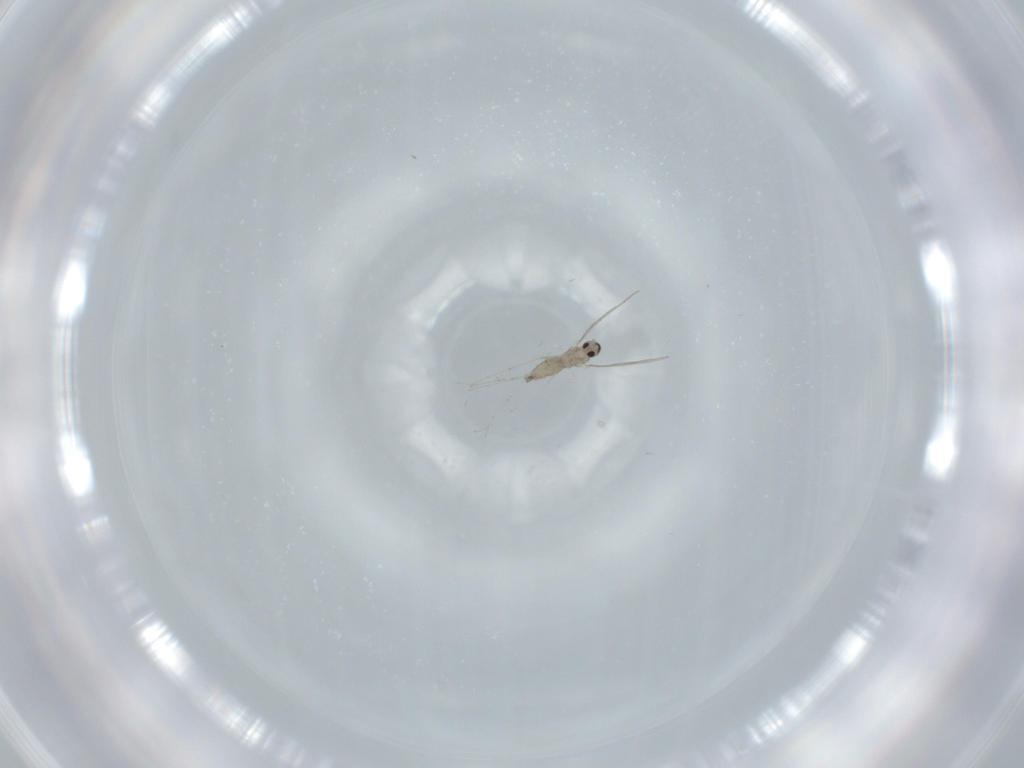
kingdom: Animalia
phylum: Arthropoda
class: Insecta
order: Diptera
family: Cecidomyiidae
